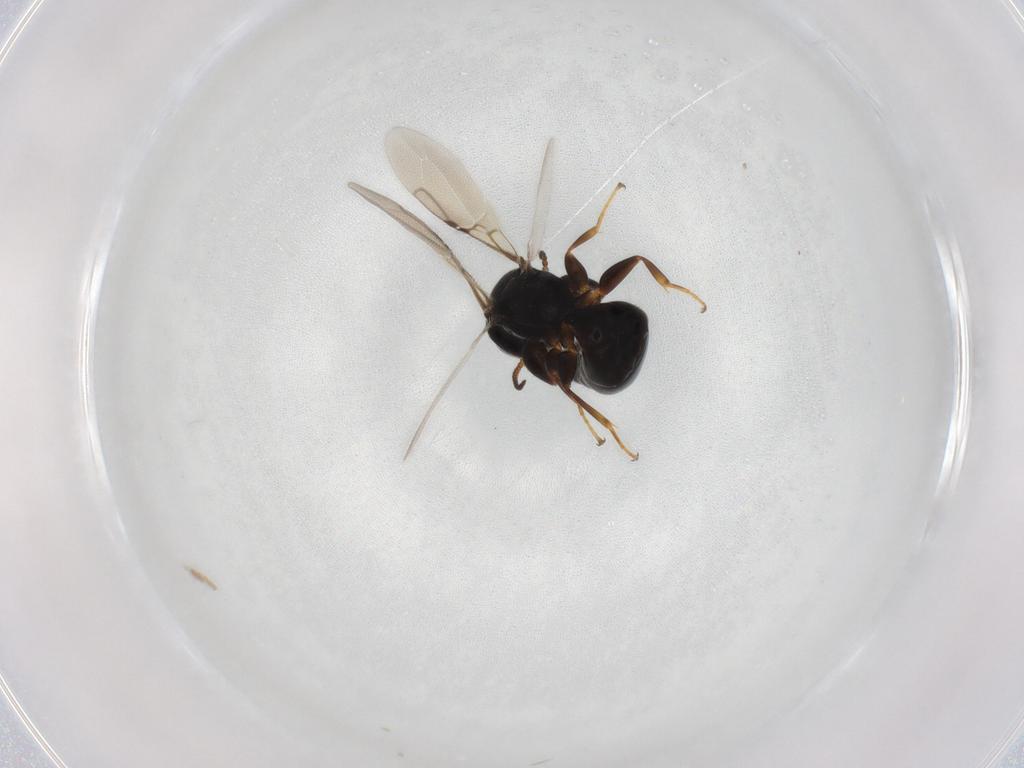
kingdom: Animalia
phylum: Arthropoda
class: Insecta
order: Hymenoptera
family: Bethylidae
